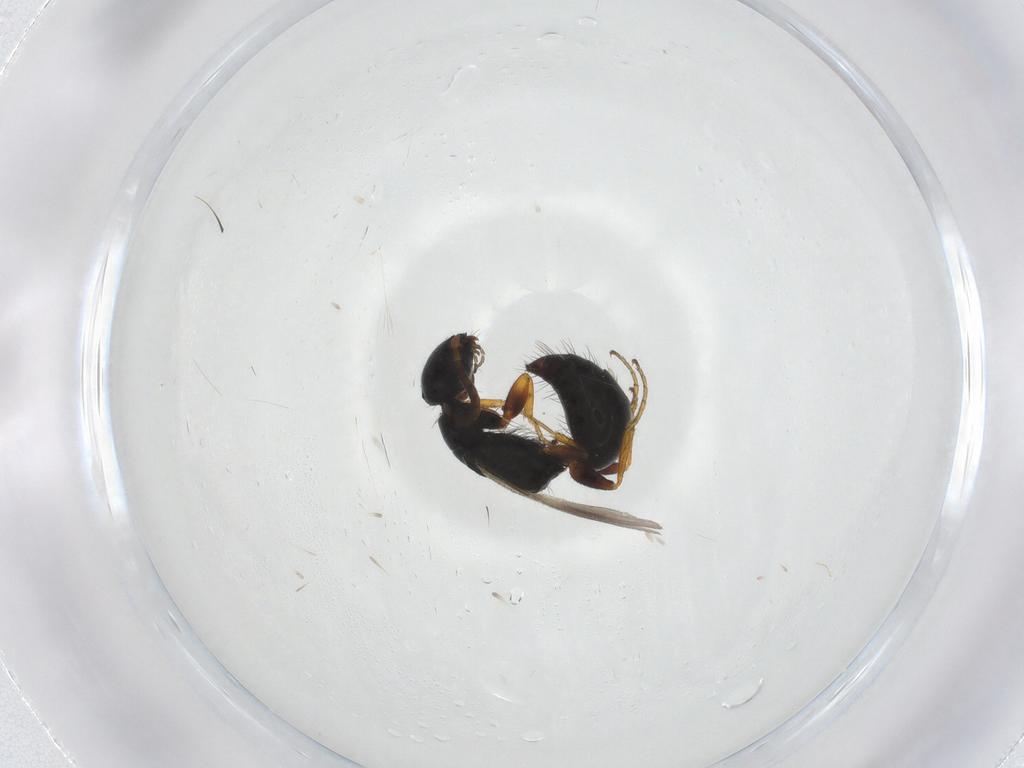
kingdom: Animalia
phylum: Arthropoda
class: Insecta
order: Hymenoptera
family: Bethylidae
